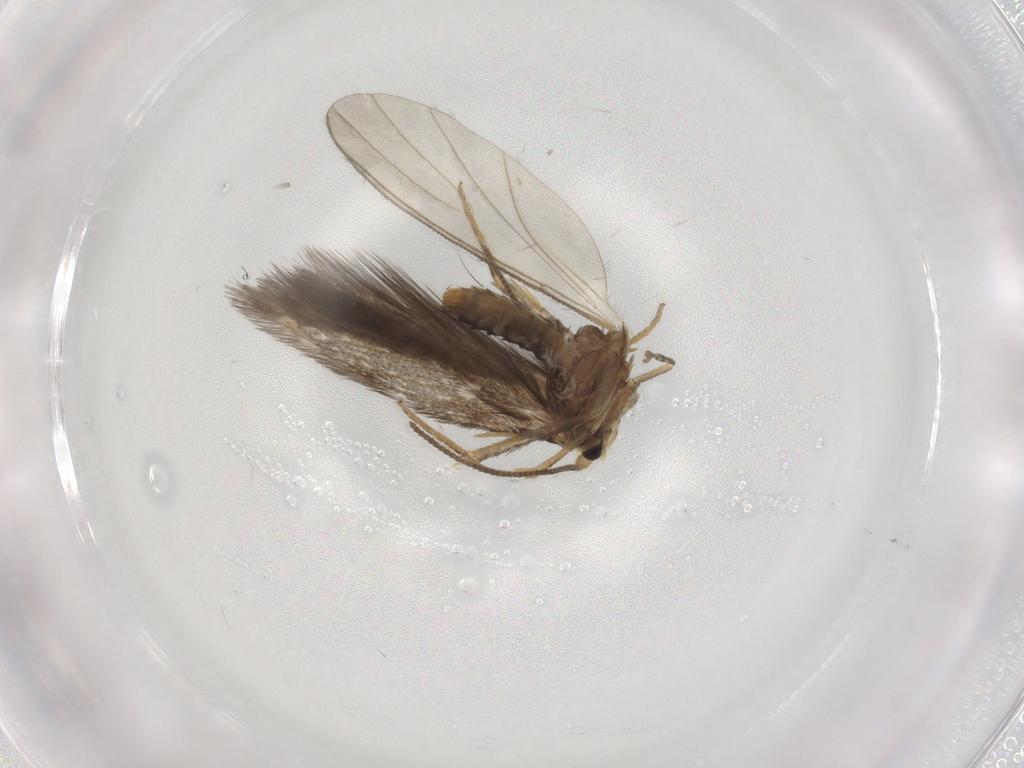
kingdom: Animalia
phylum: Arthropoda
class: Insecta
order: Lepidoptera
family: Nepticulidae
